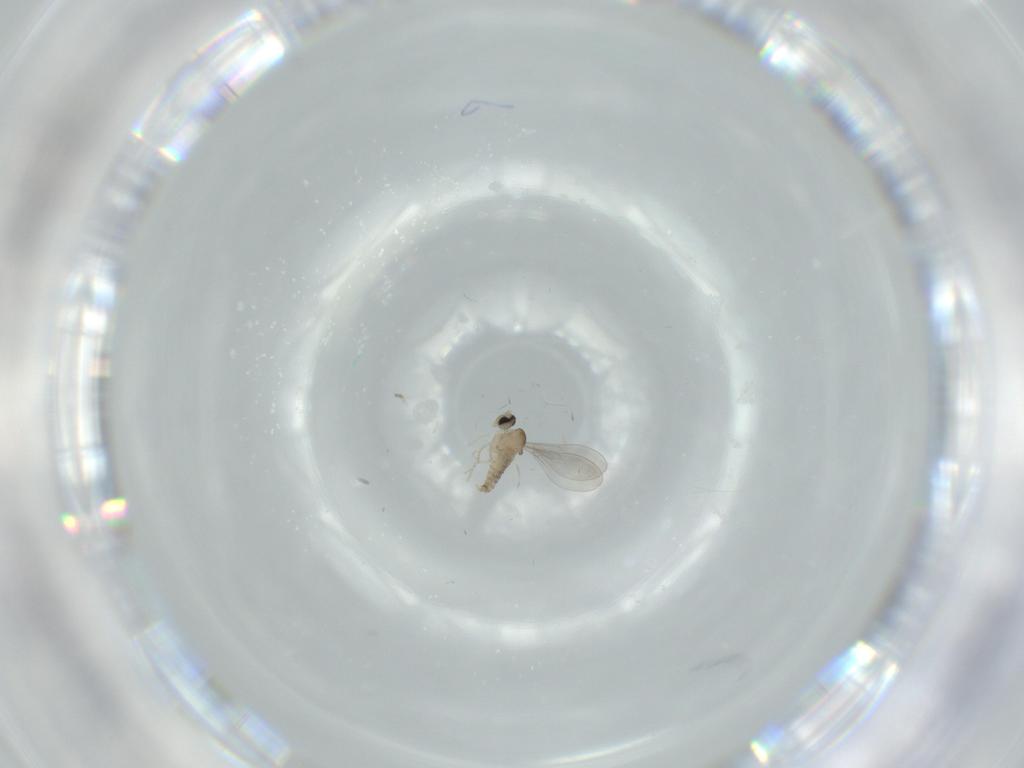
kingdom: Animalia
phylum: Arthropoda
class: Insecta
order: Diptera
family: Cecidomyiidae
